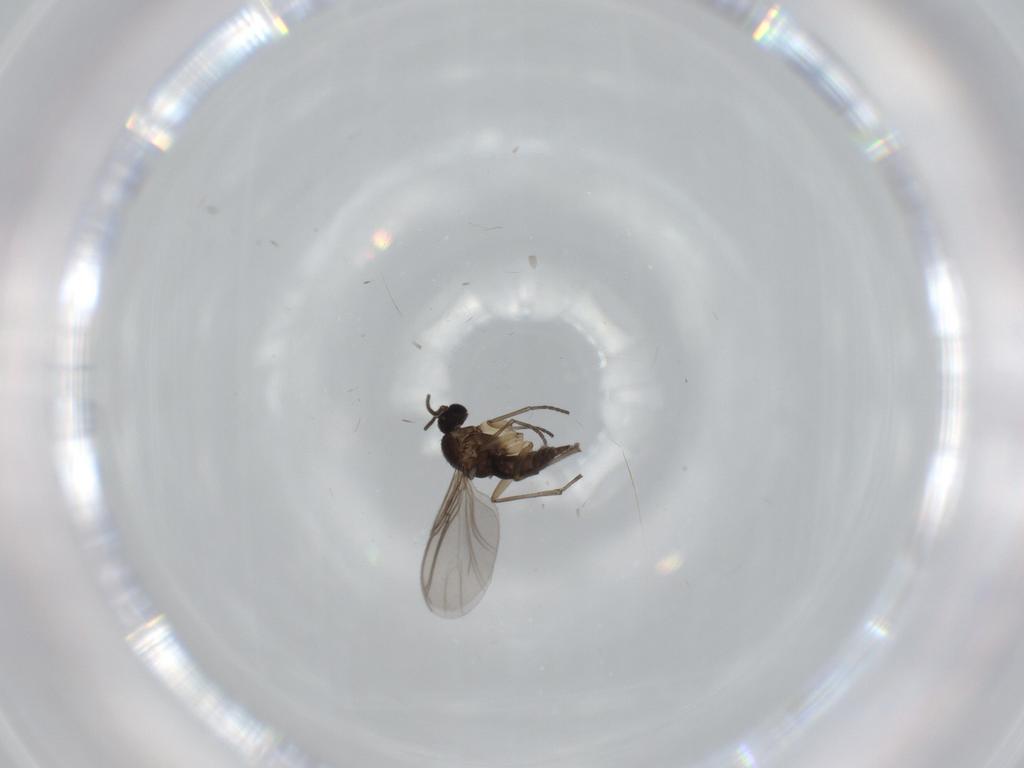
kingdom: Animalia
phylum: Arthropoda
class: Insecta
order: Diptera
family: Sciaridae
